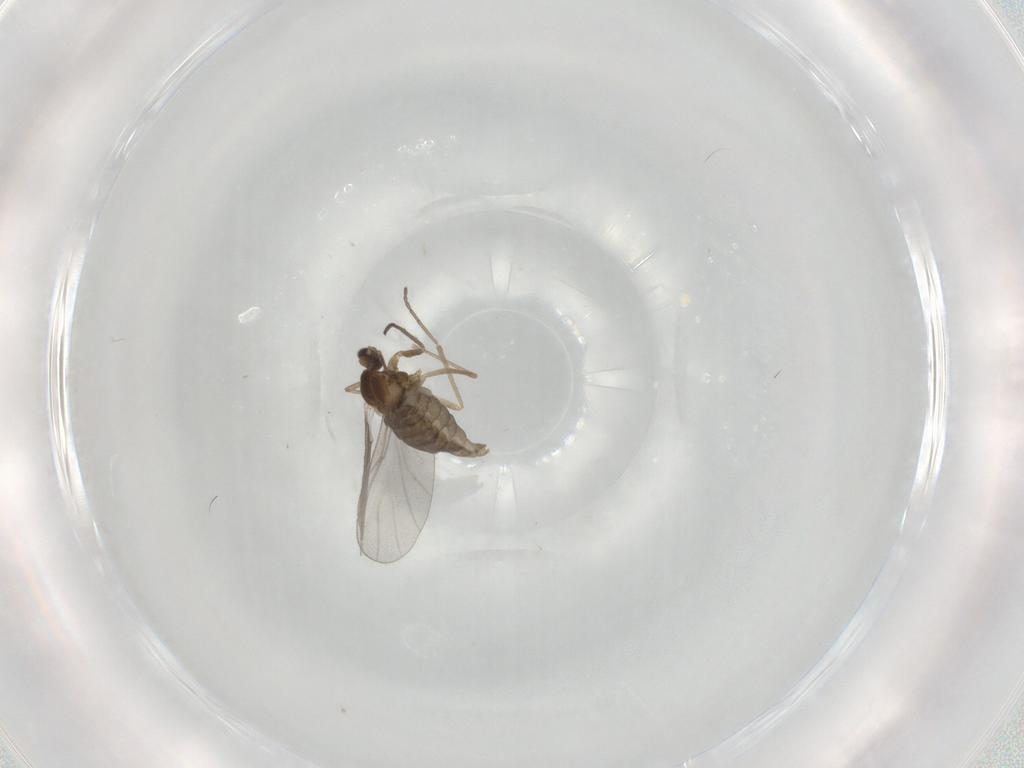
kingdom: Animalia
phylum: Arthropoda
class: Insecta
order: Diptera
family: Cecidomyiidae
